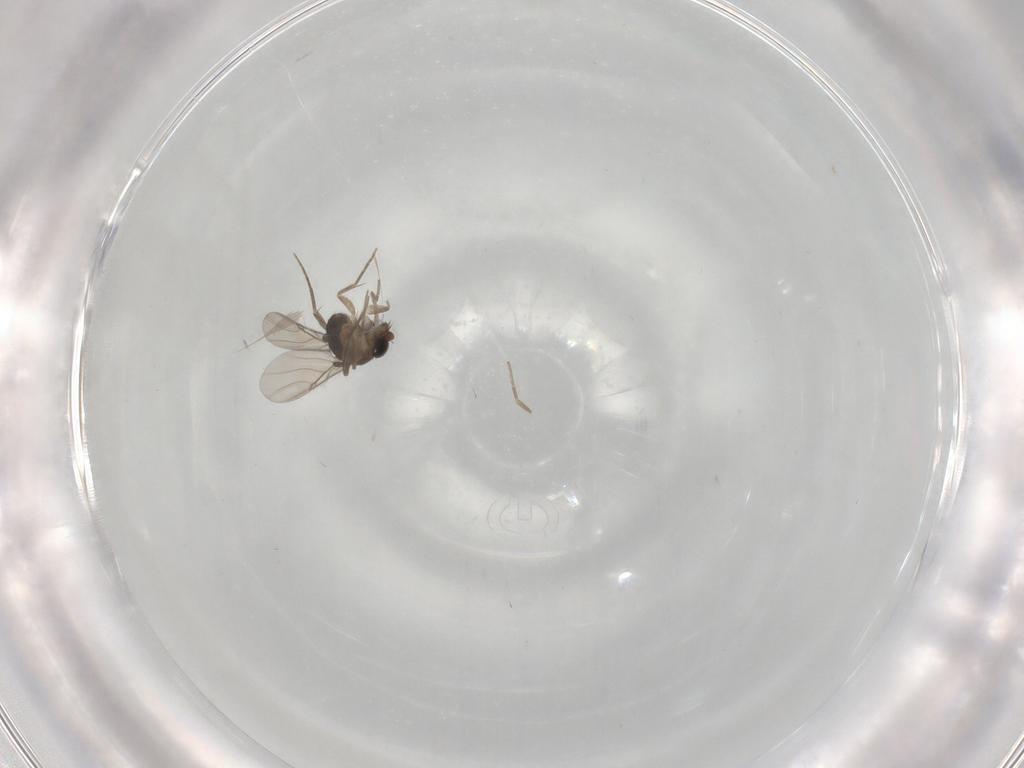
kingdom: Animalia
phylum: Arthropoda
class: Insecta
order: Diptera
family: Phoridae
